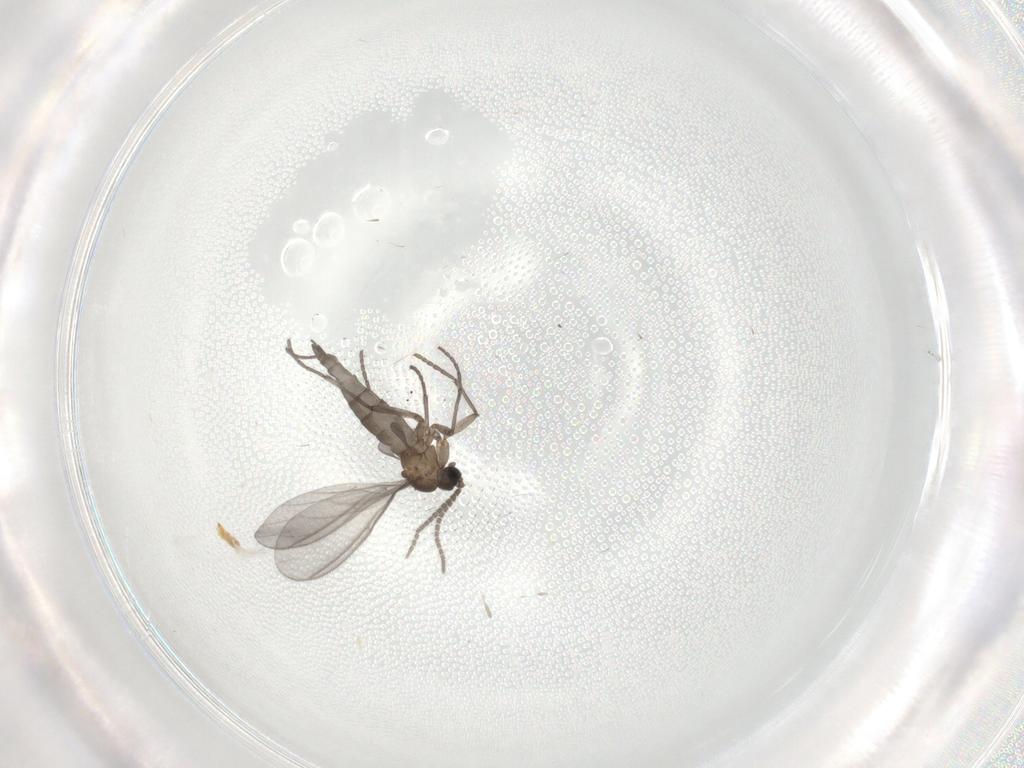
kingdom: Animalia
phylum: Arthropoda
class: Insecta
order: Diptera
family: Sciaridae
